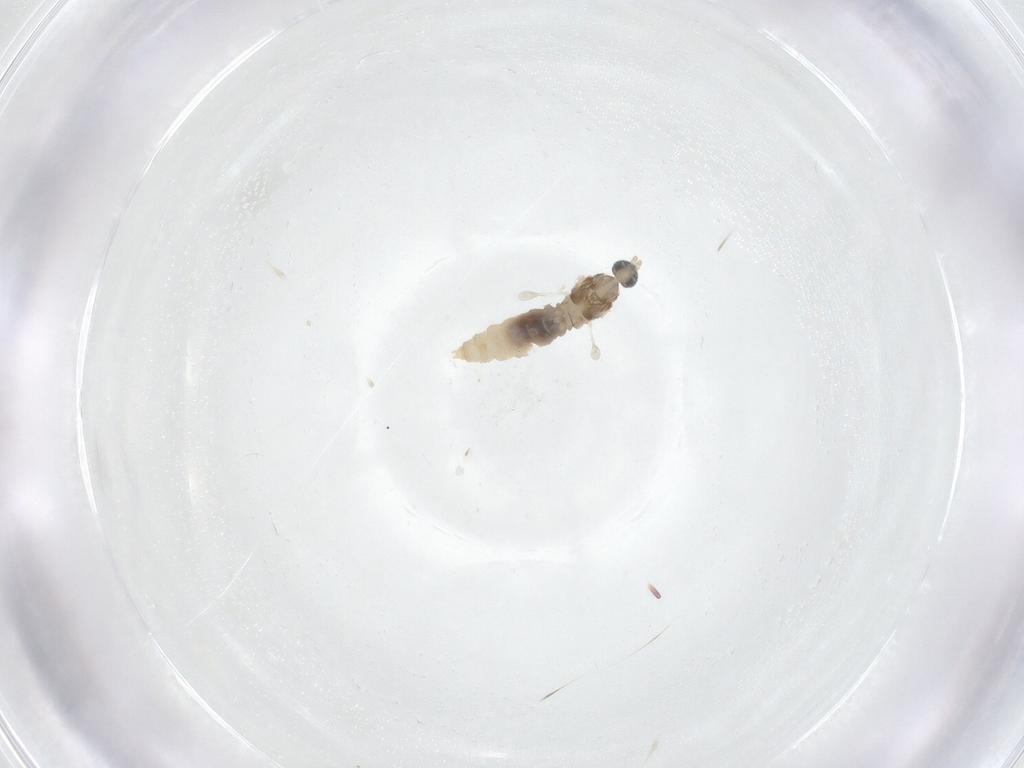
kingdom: Animalia
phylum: Arthropoda
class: Insecta
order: Diptera
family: Cecidomyiidae
